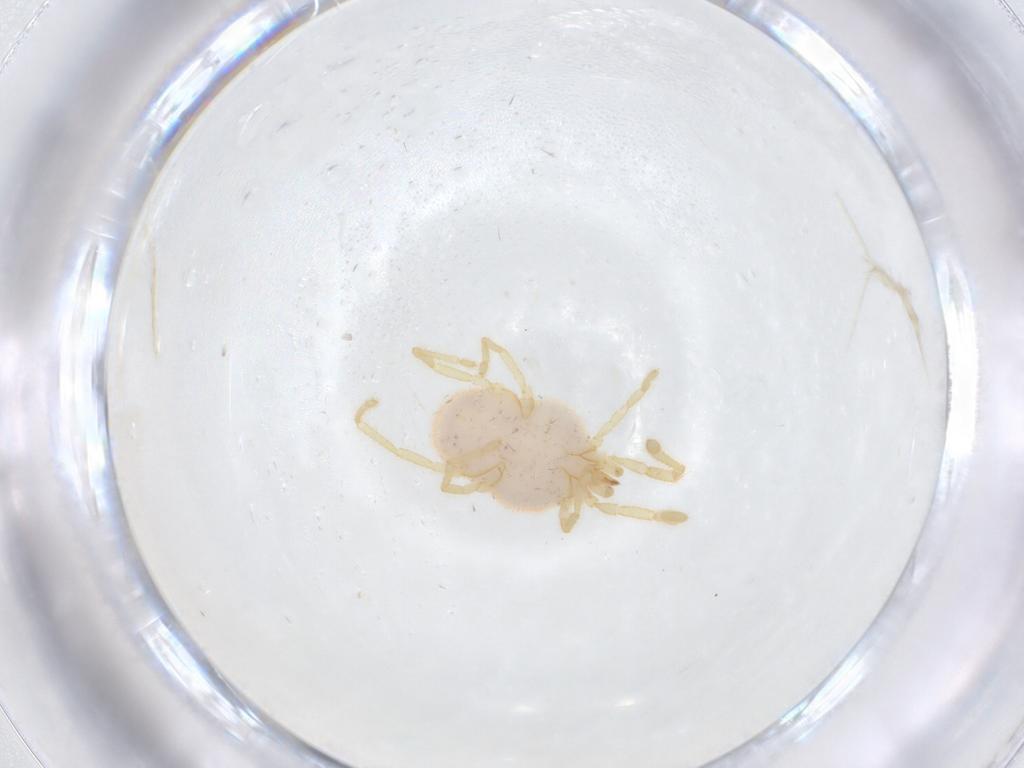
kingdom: Animalia
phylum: Arthropoda
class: Arachnida
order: Trombidiformes
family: Erythraeidae
